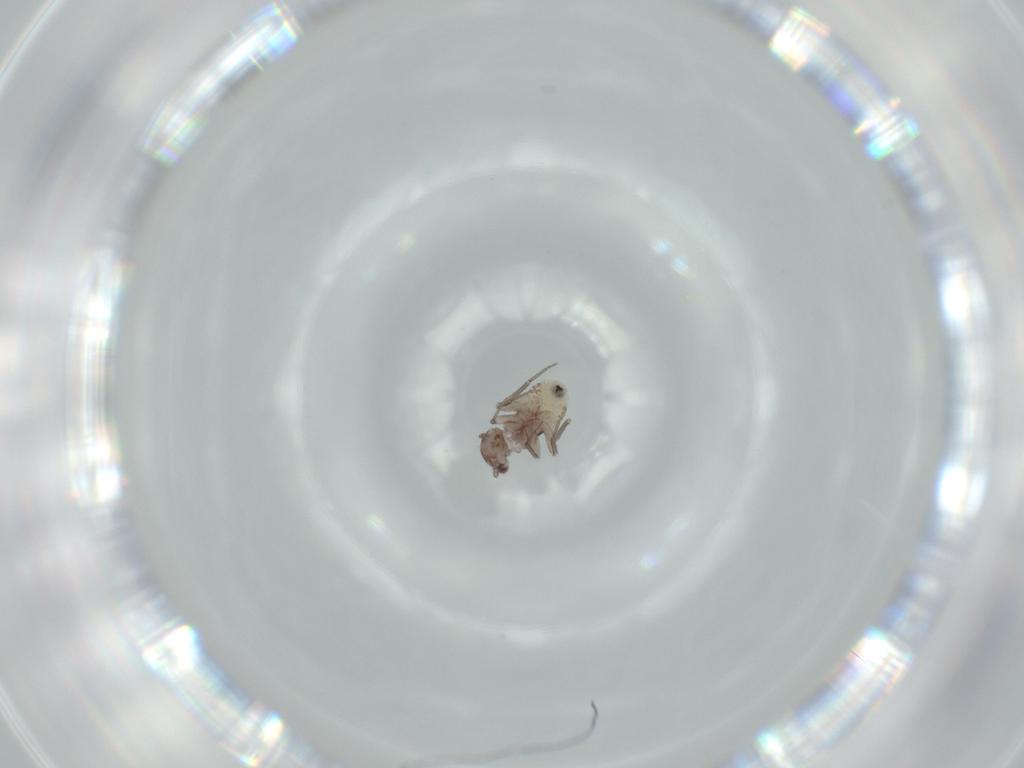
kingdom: Animalia
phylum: Arthropoda
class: Insecta
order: Psocodea
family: Lepidopsocidae
